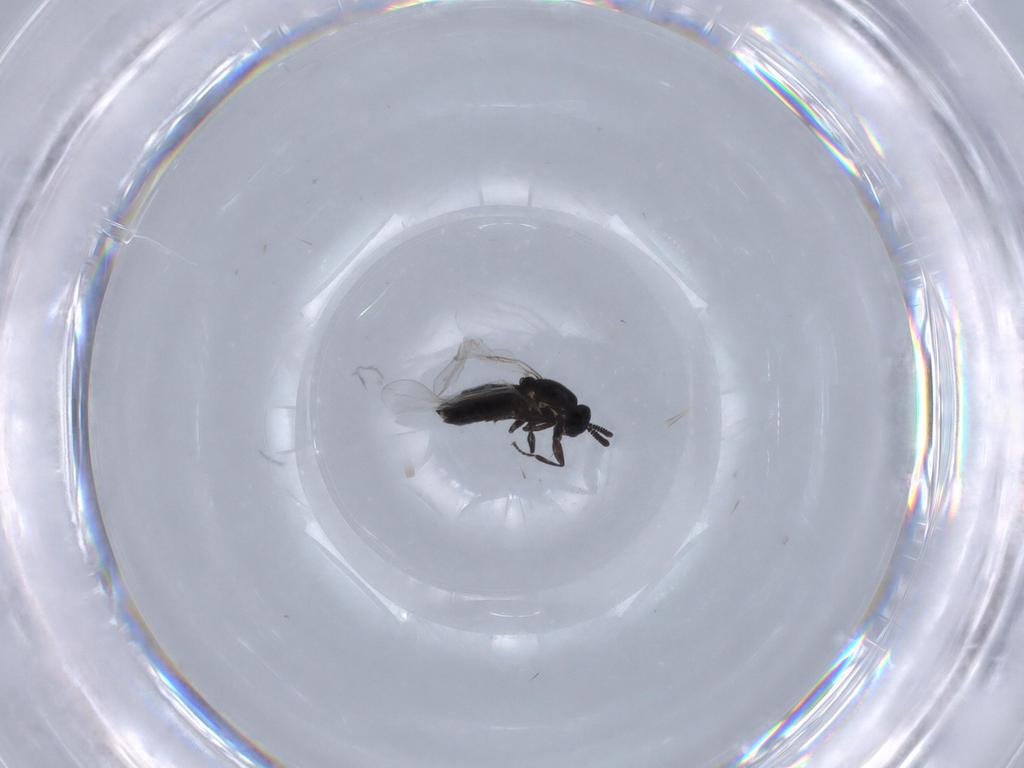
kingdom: Animalia
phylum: Arthropoda
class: Insecta
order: Diptera
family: Scatopsidae
